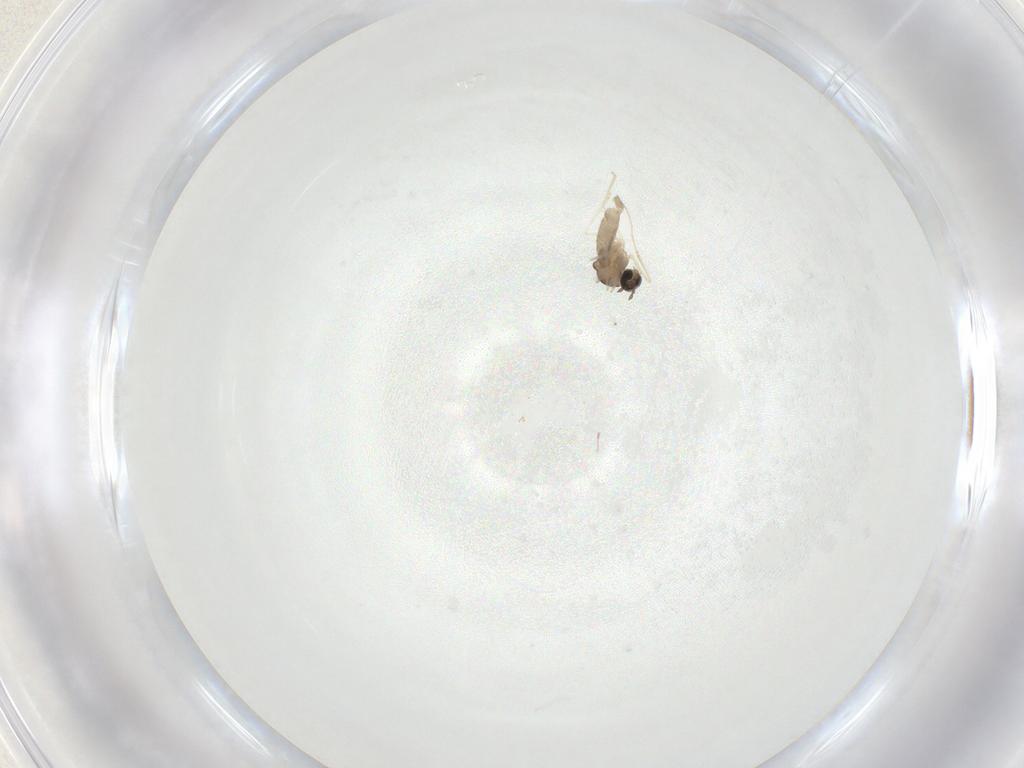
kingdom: Animalia
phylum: Arthropoda
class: Insecta
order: Diptera
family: Cecidomyiidae
